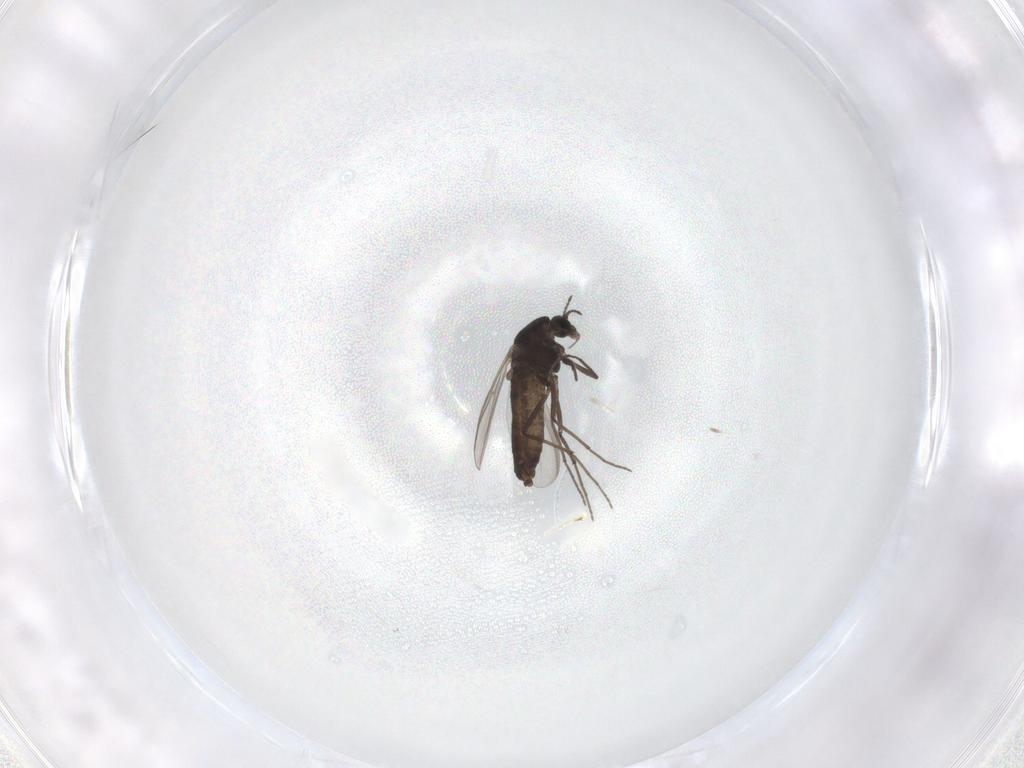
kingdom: Animalia
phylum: Arthropoda
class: Insecta
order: Diptera
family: Chironomidae
